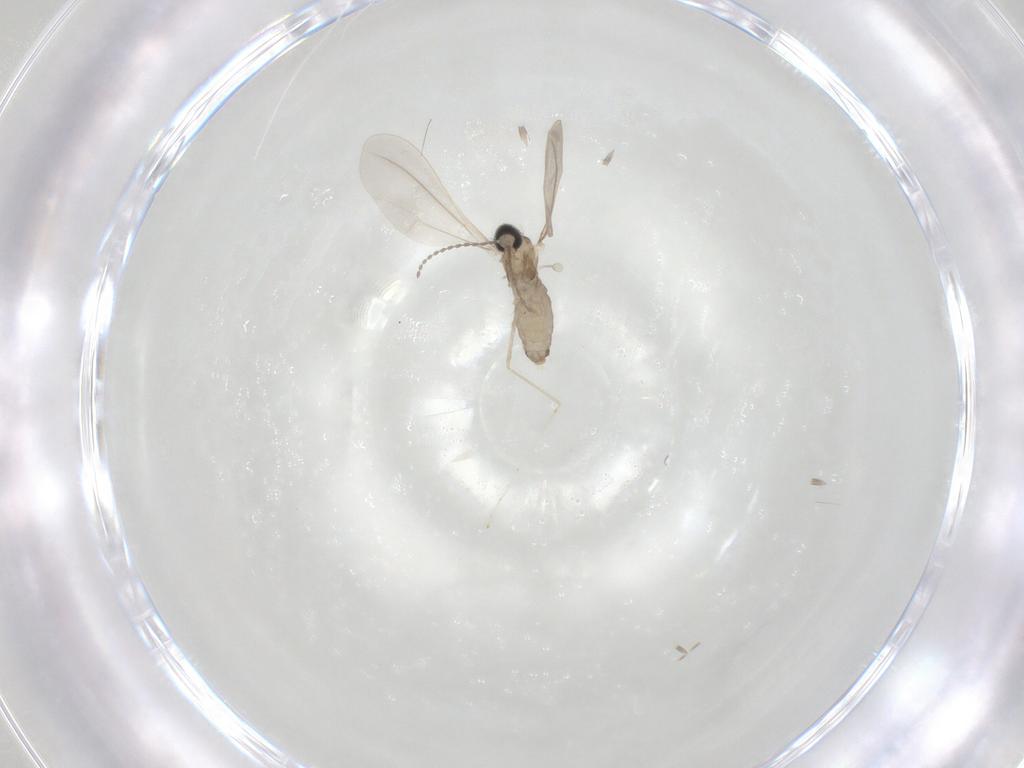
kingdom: Animalia
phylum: Arthropoda
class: Insecta
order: Diptera
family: Cecidomyiidae
